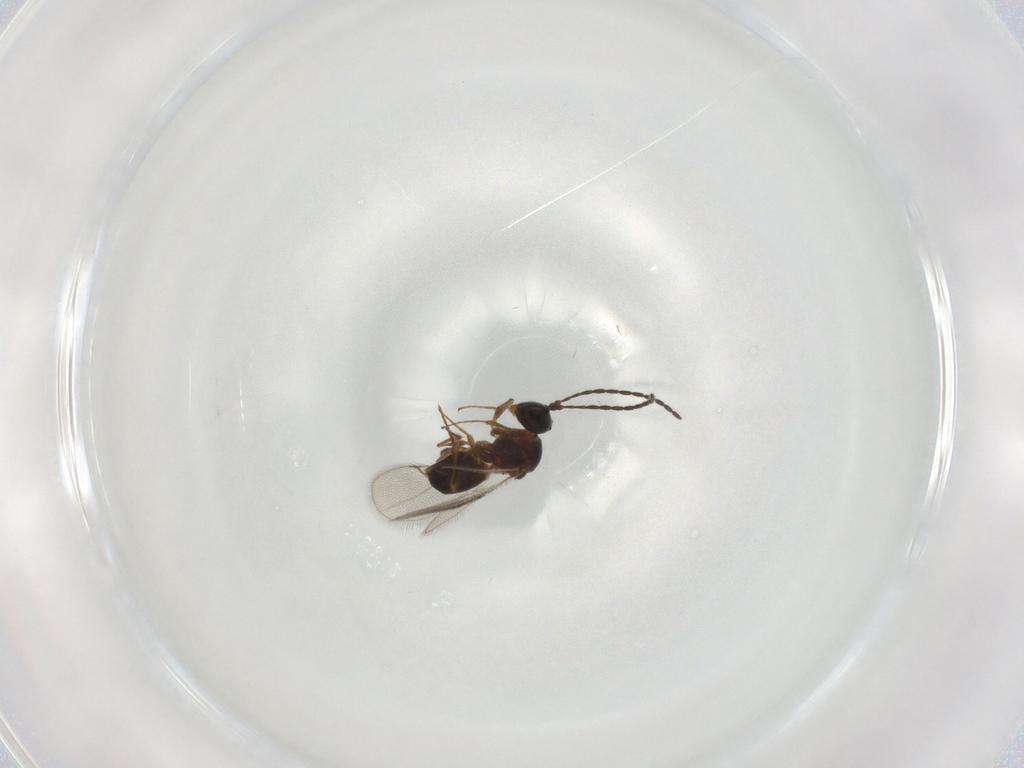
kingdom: Animalia
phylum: Arthropoda
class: Insecta
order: Hymenoptera
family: Figitidae
